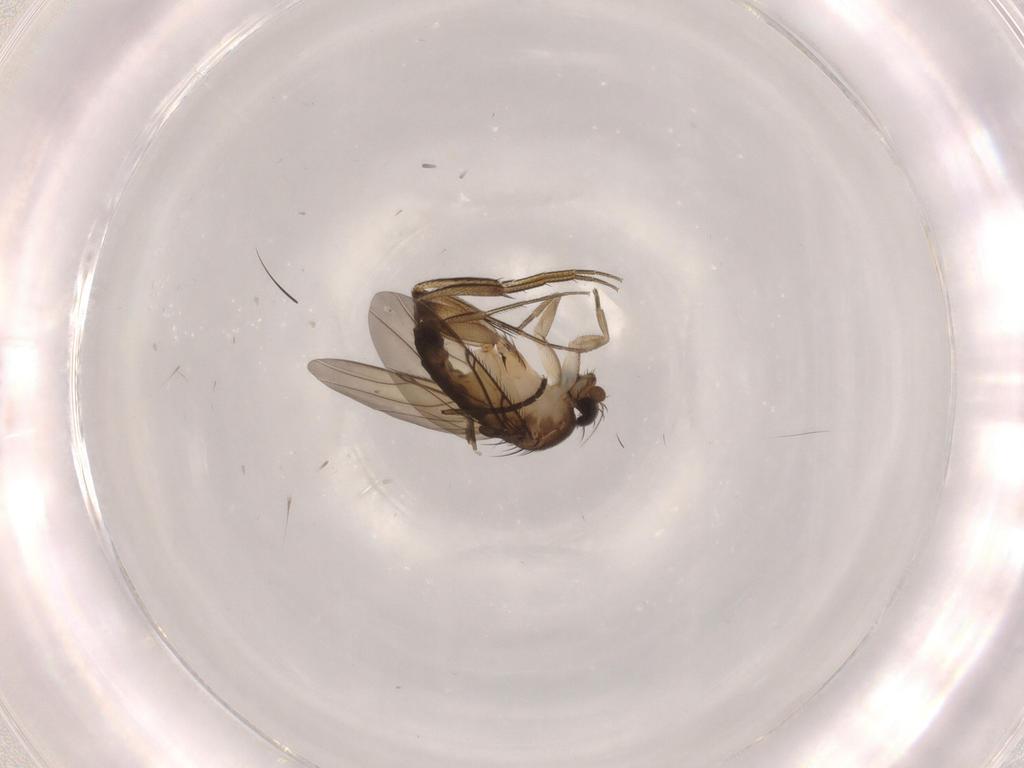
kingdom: Animalia
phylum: Arthropoda
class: Insecta
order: Diptera
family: Cecidomyiidae
